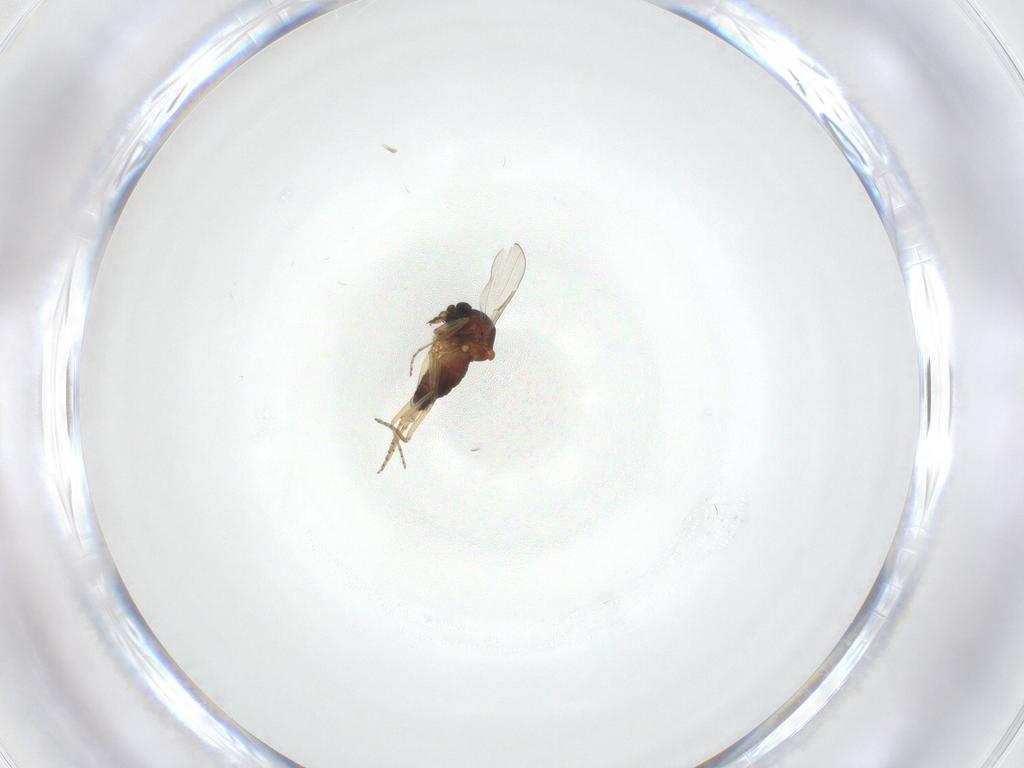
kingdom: Animalia
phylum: Arthropoda
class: Insecta
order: Diptera
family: Ceratopogonidae
